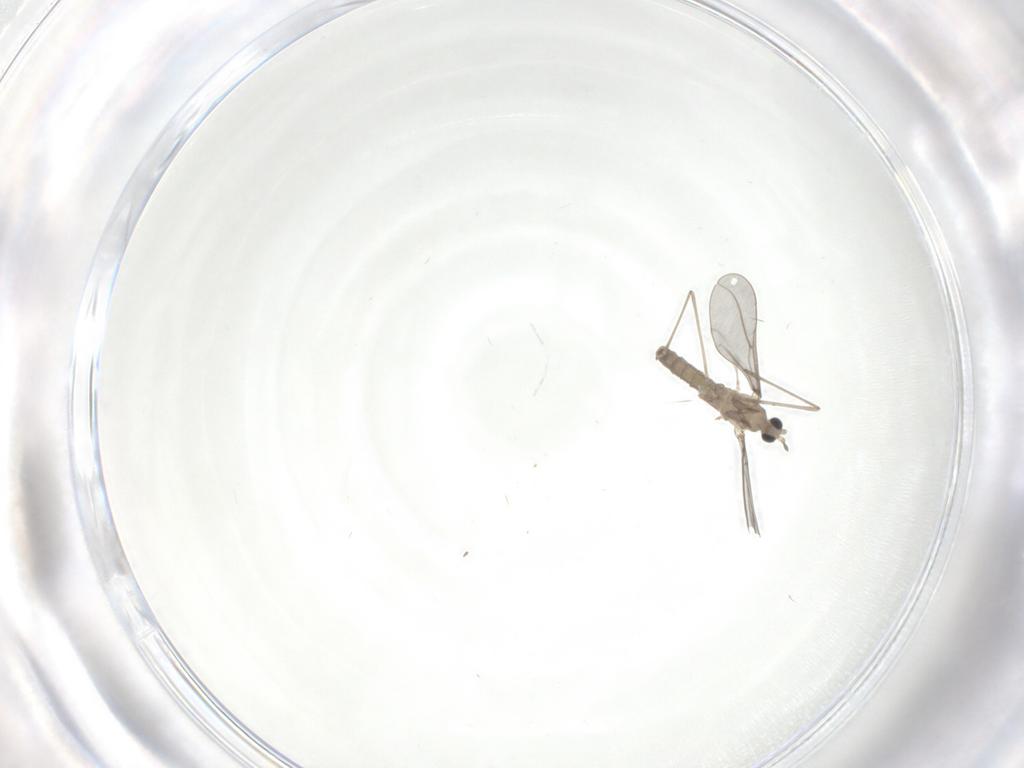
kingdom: Animalia
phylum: Arthropoda
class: Insecta
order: Diptera
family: Cecidomyiidae
